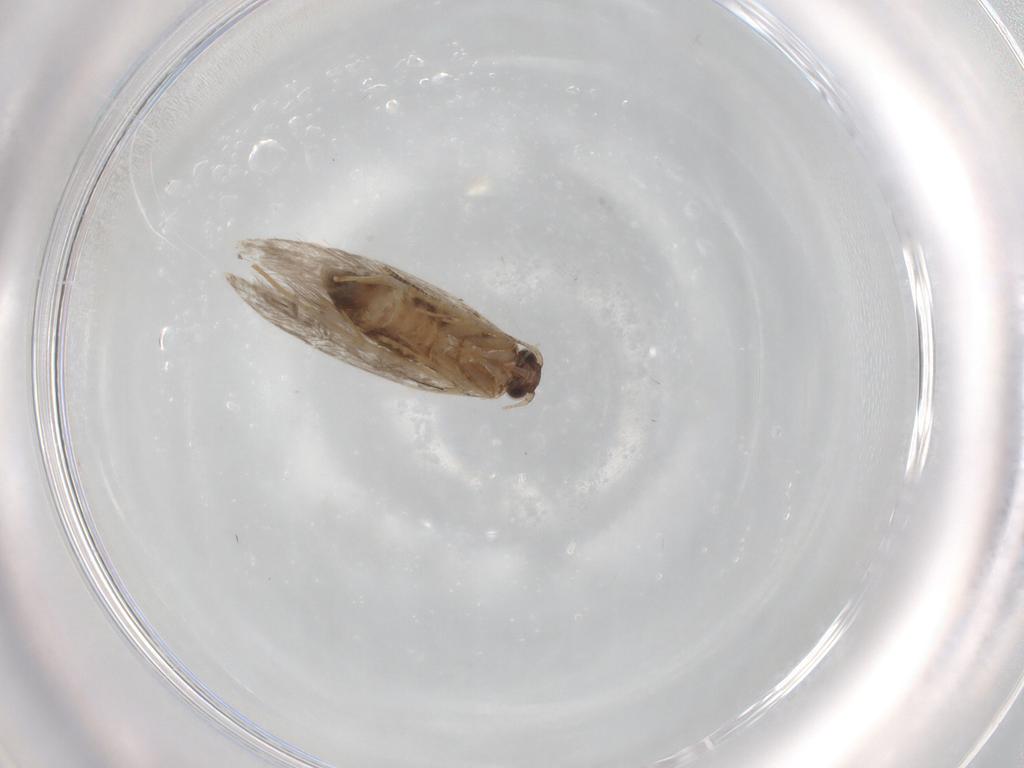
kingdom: Animalia
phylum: Arthropoda
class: Insecta
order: Lepidoptera
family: Tineidae
